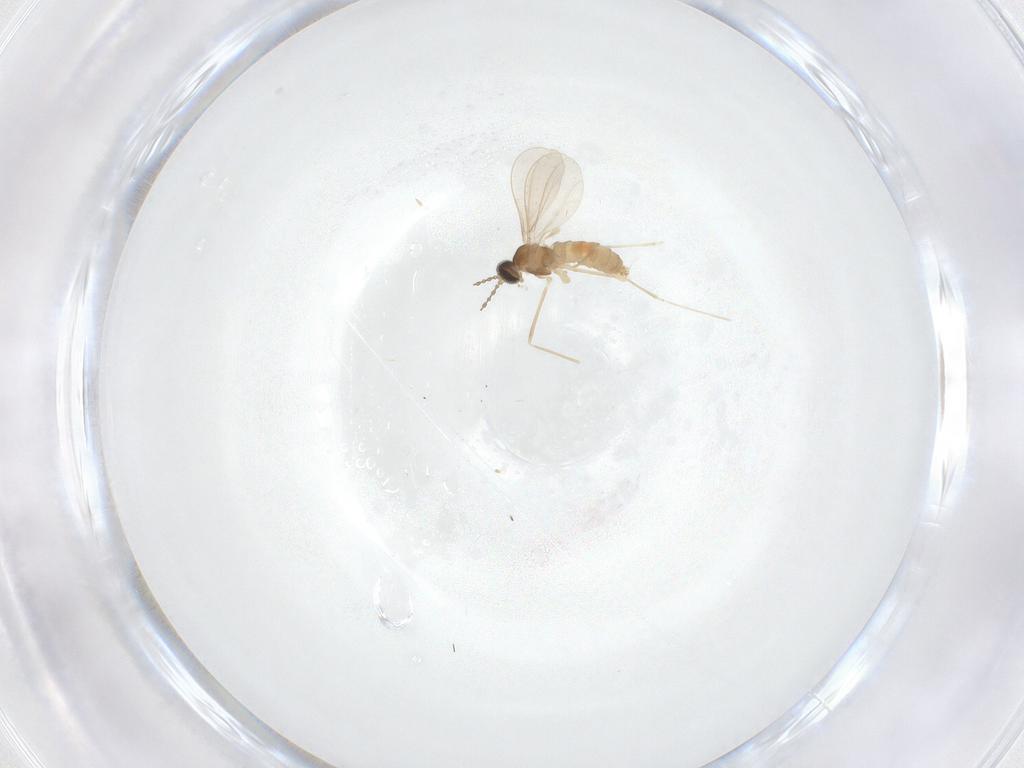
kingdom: Animalia
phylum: Arthropoda
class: Insecta
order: Diptera
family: Cecidomyiidae
